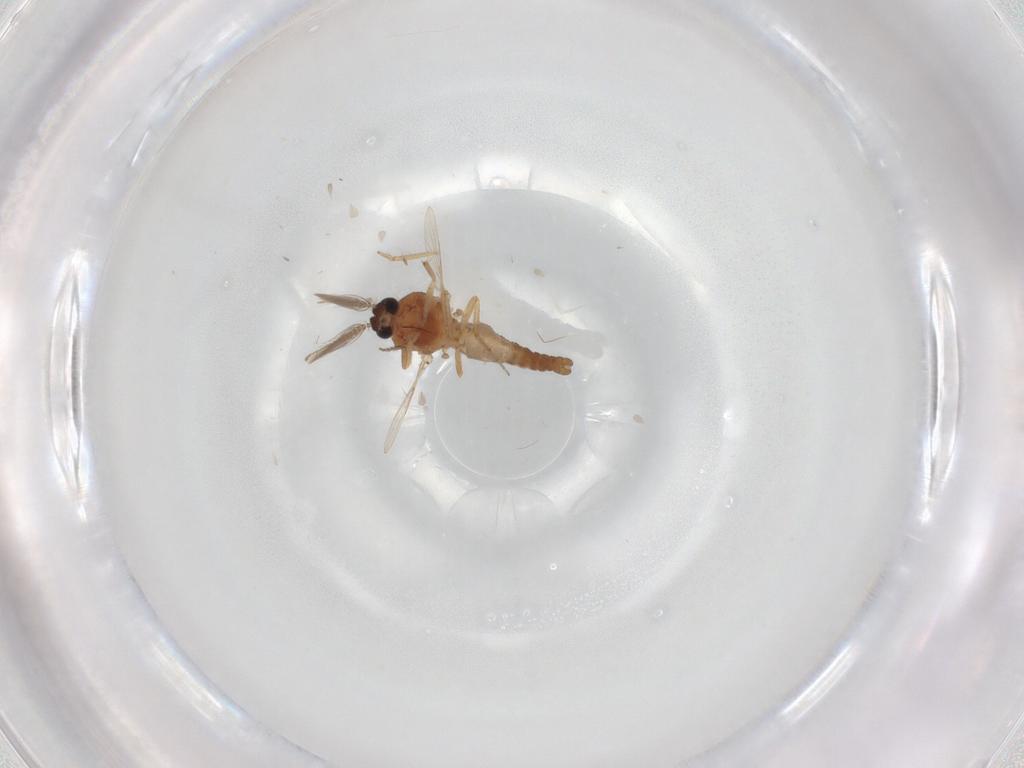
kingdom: Animalia
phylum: Arthropoda
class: Insecta
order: Diptera
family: Ceratopogonidae
